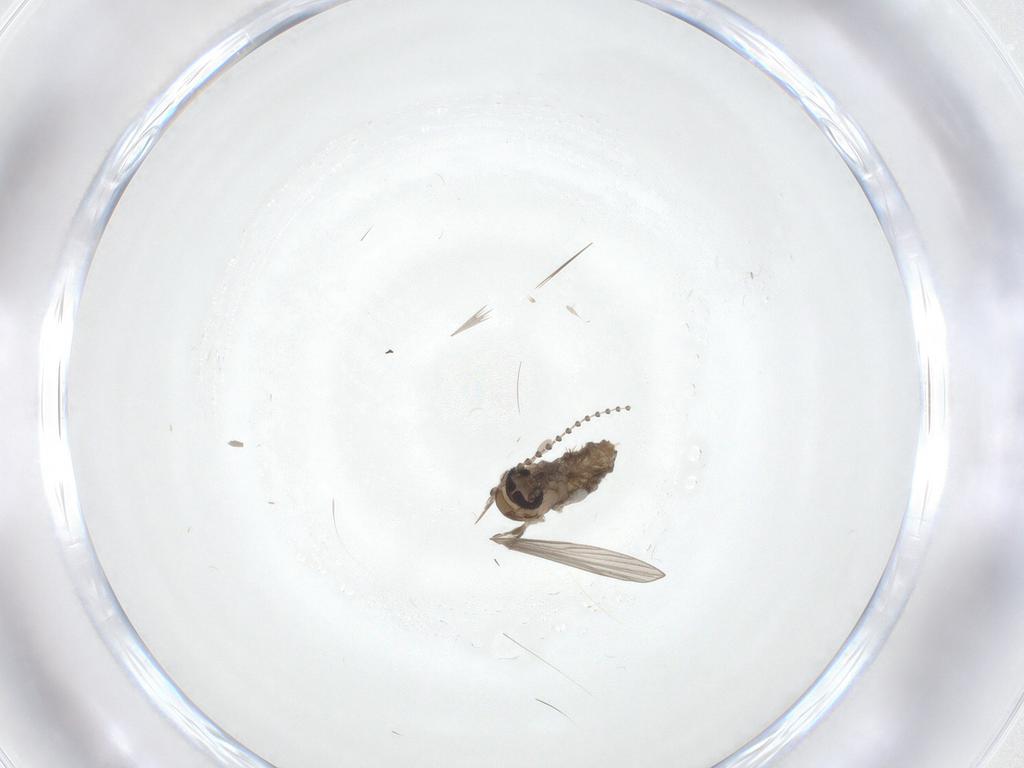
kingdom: Animalia
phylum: Arthropoda
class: Insecta
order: Diptera
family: Psychodidae
